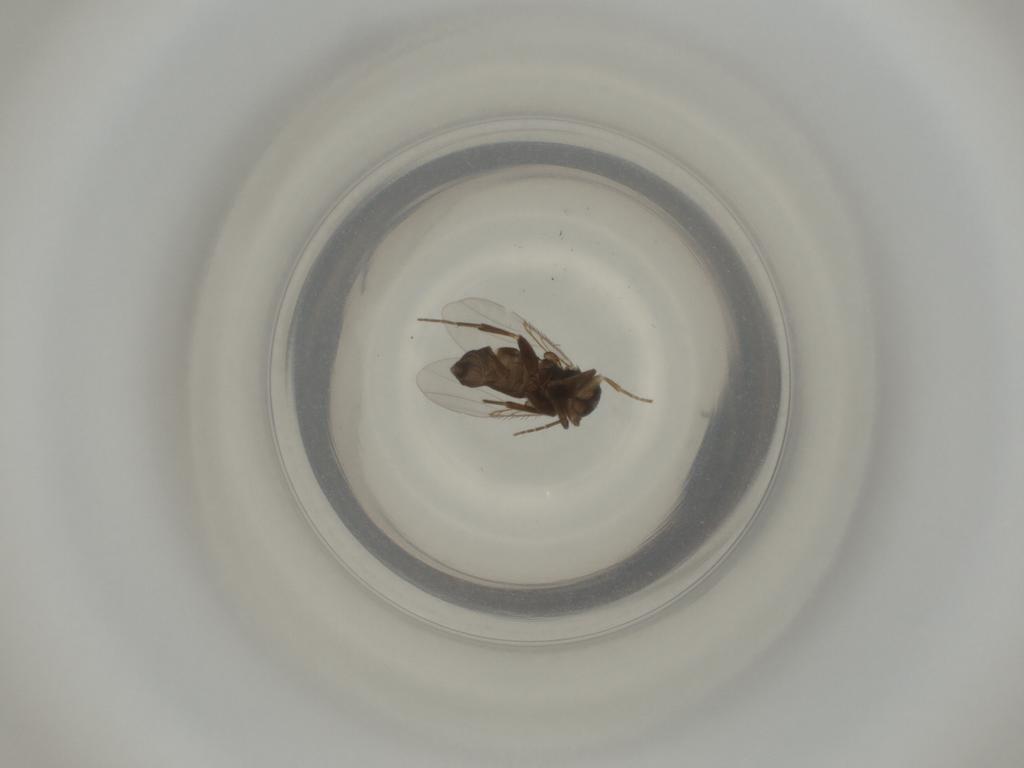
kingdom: Animalia
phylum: Arthropoda
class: Insecta
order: Diptera
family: Phoridae
